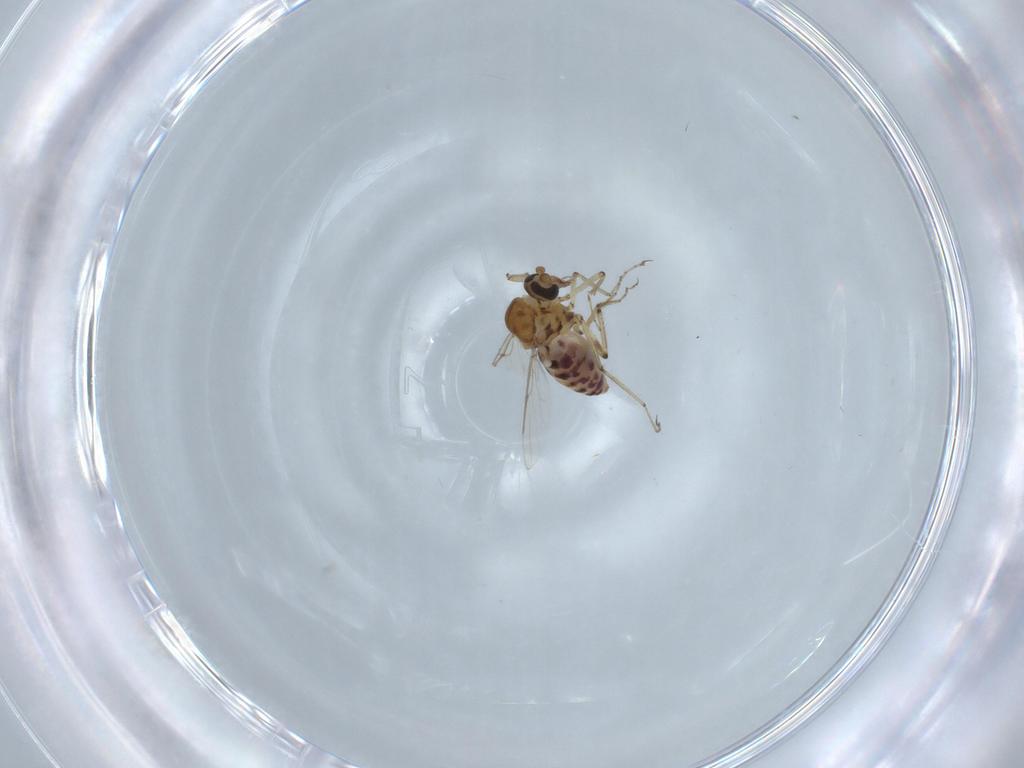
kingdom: Animalia
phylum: Arthropoda
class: Insecta
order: Diptera
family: Ceratopogonidae
